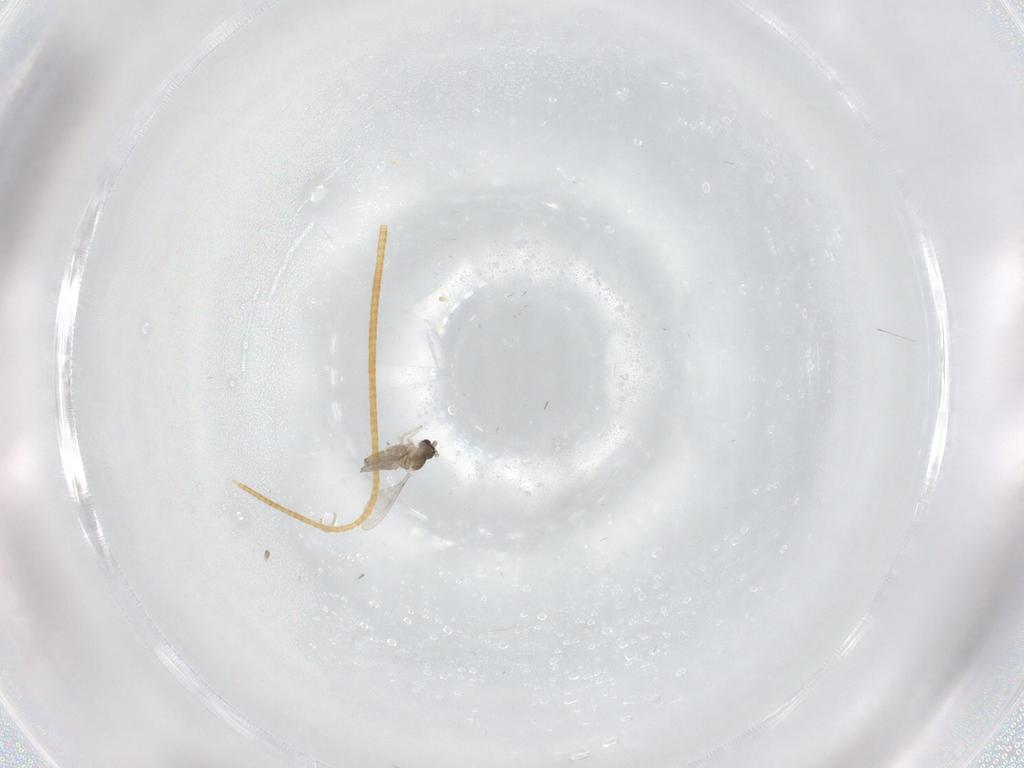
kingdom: Animalia
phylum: Arthropoda
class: Insecta
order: Diptera
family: Cecidomyiidae
